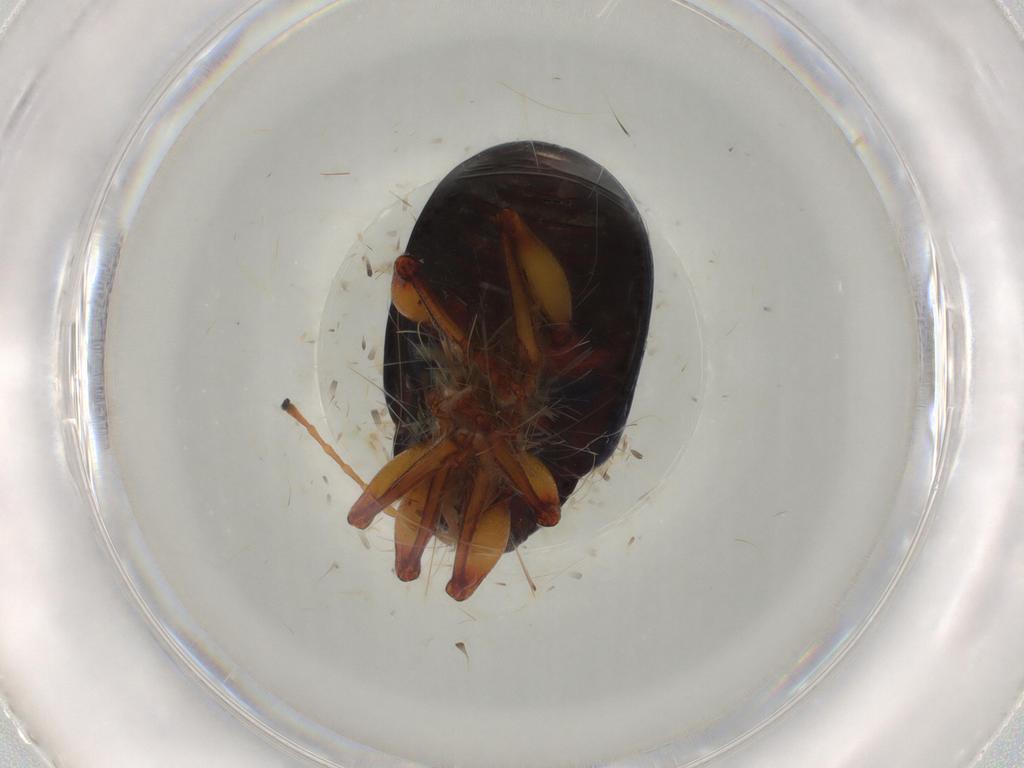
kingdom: Animalia
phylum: Arthropoda
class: Insecta
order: Coleoptera
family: Chrysomelidae
